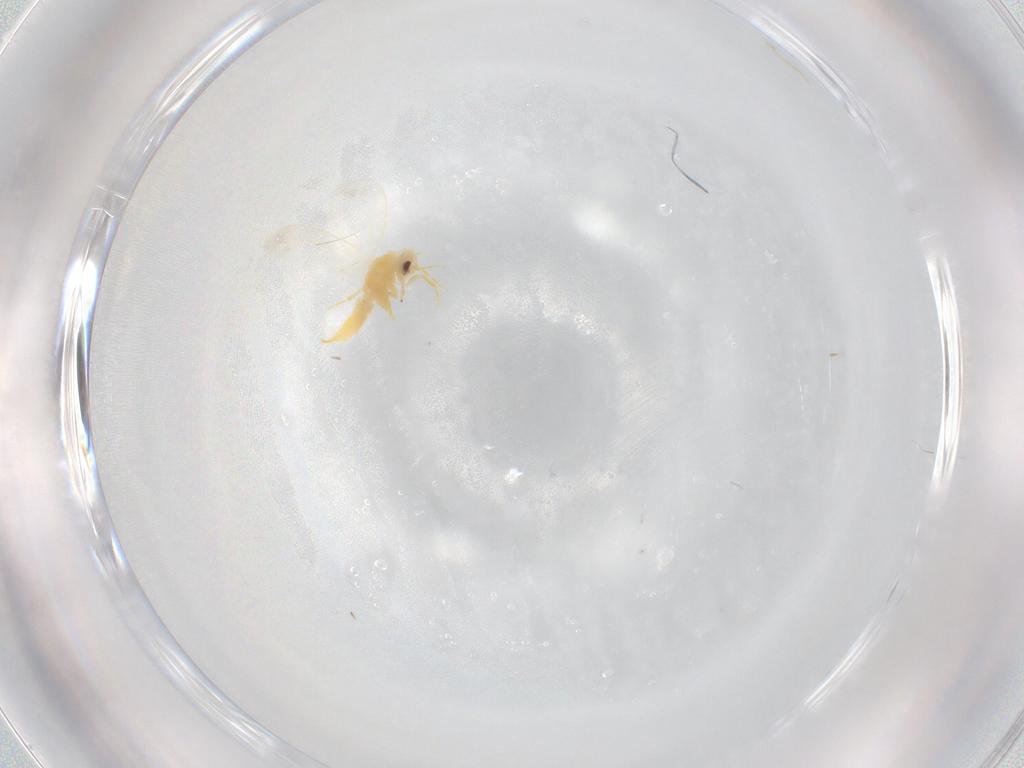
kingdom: Animalia
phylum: Arthropoda
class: Insecta
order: Hemiptera
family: Aleyrodidae
